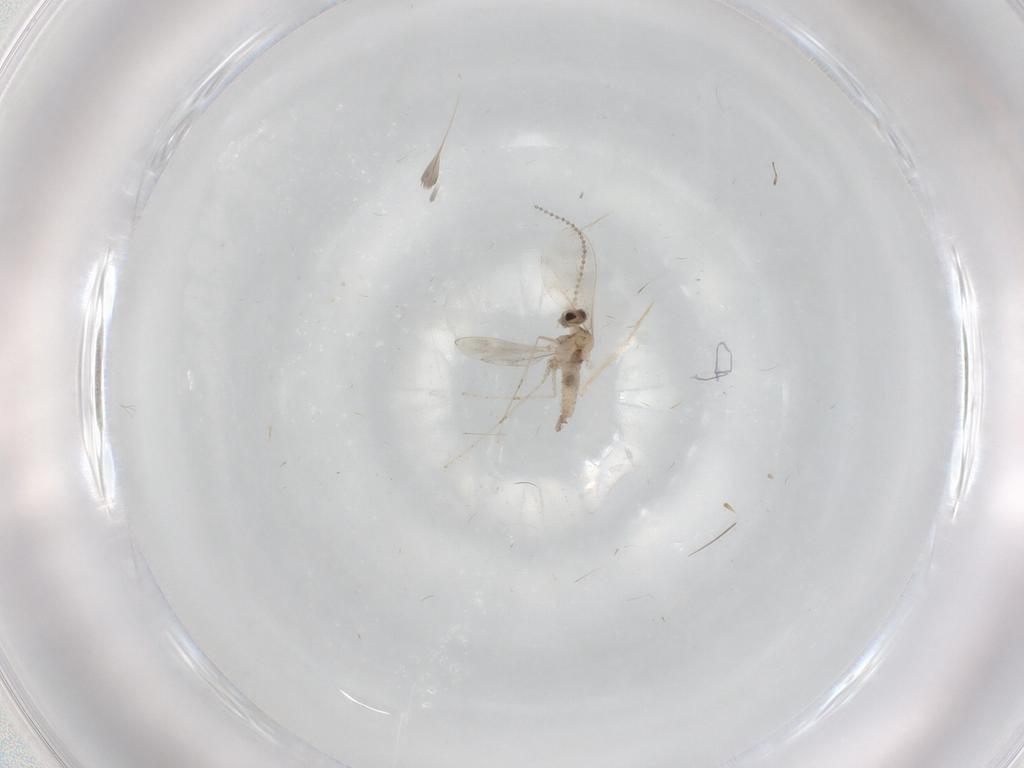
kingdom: Animalia
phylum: Arthropoda
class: Insecta
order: Diptera
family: Cecidomyiidae
